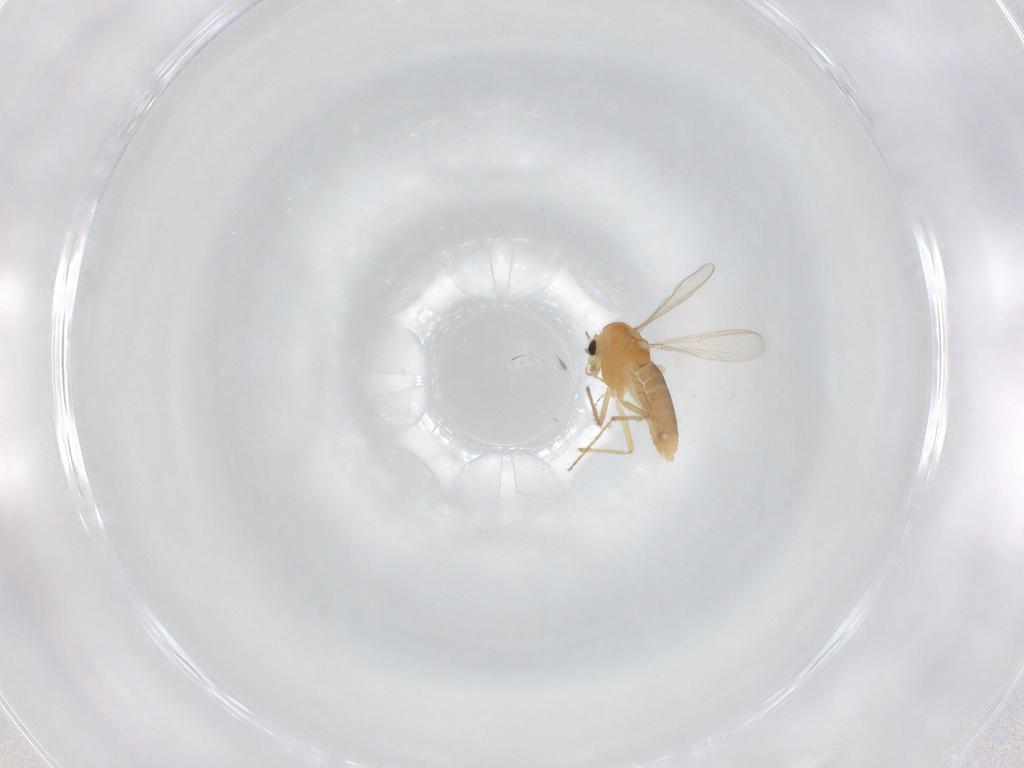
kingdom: Animalia
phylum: Arthropoda
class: Insecta
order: Diptera
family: Chironomidae
